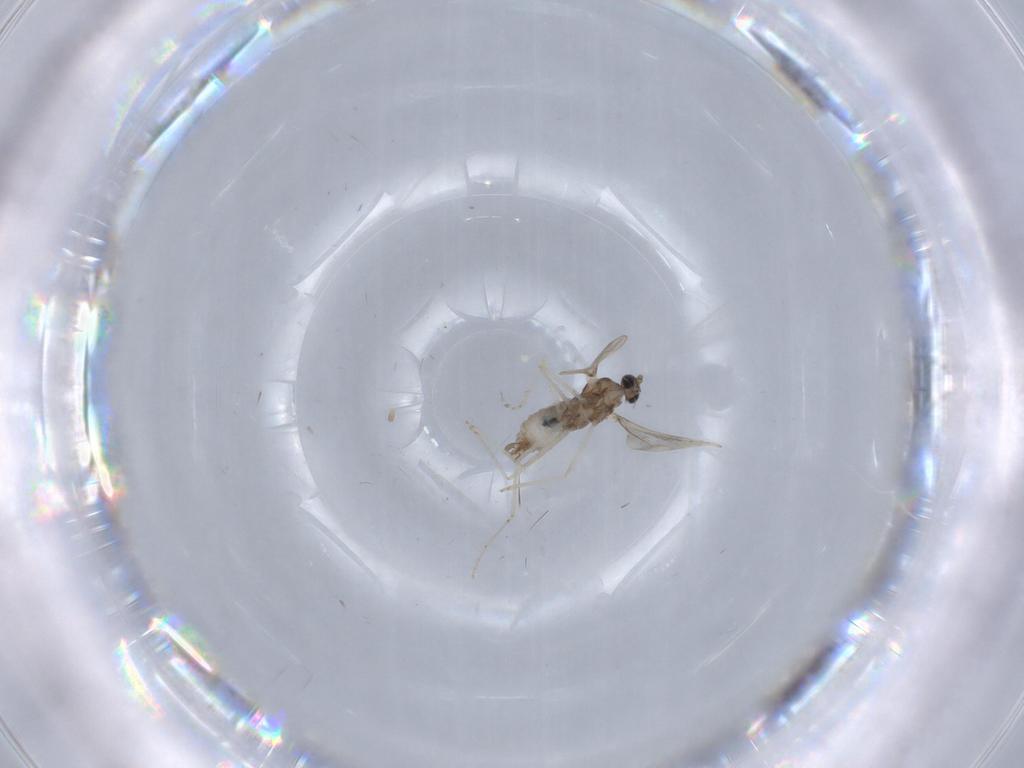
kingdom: Animalia
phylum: Arthropoda
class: Insecta
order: Diptera
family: Cecidomyiidae
